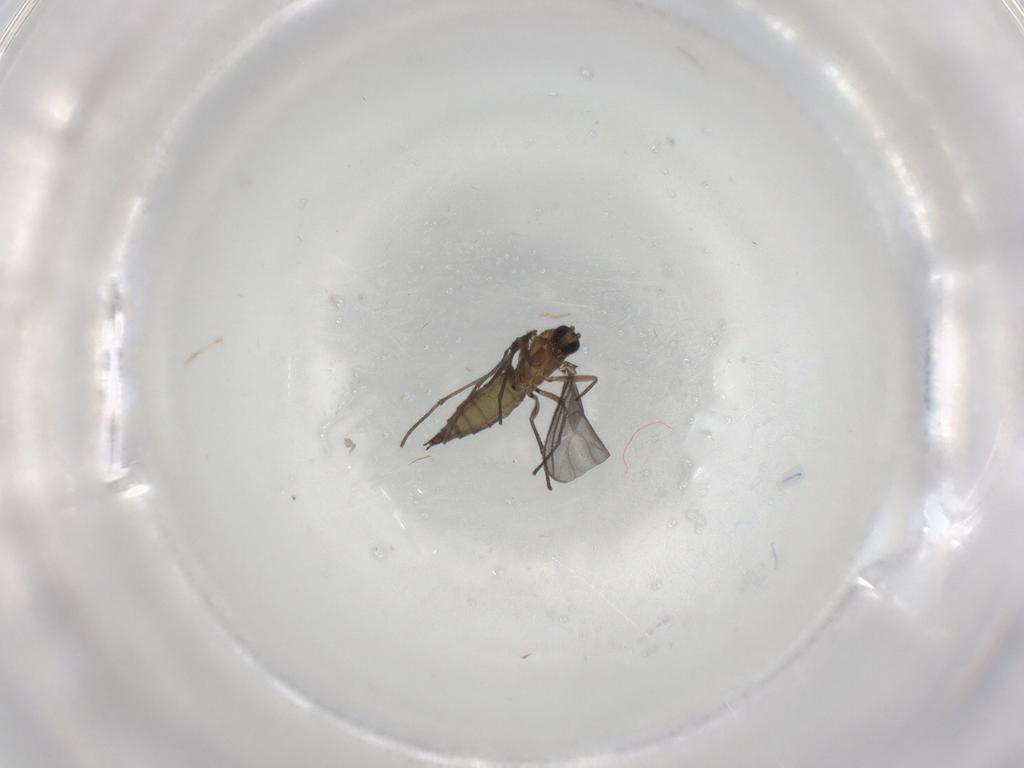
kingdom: Animalia
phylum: Arthropoda
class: Insecta
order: Diptera
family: Sciaridae
